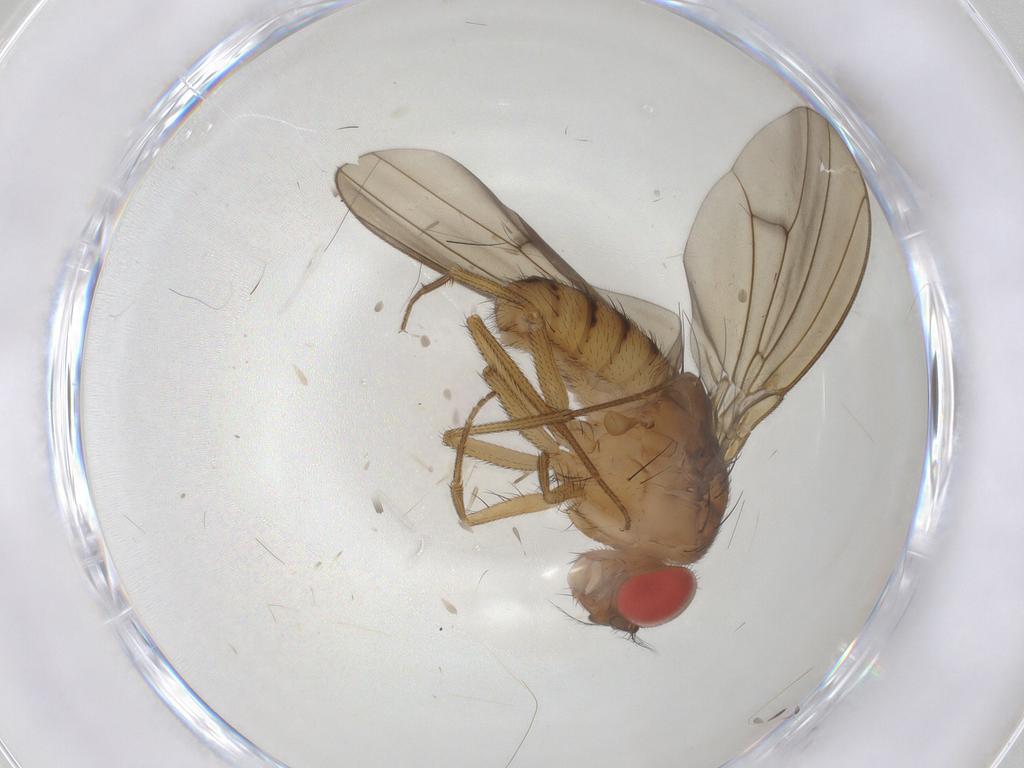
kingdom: Animalia
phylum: Arthropoda
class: Insecta
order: Diptera
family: Drosophilidae
